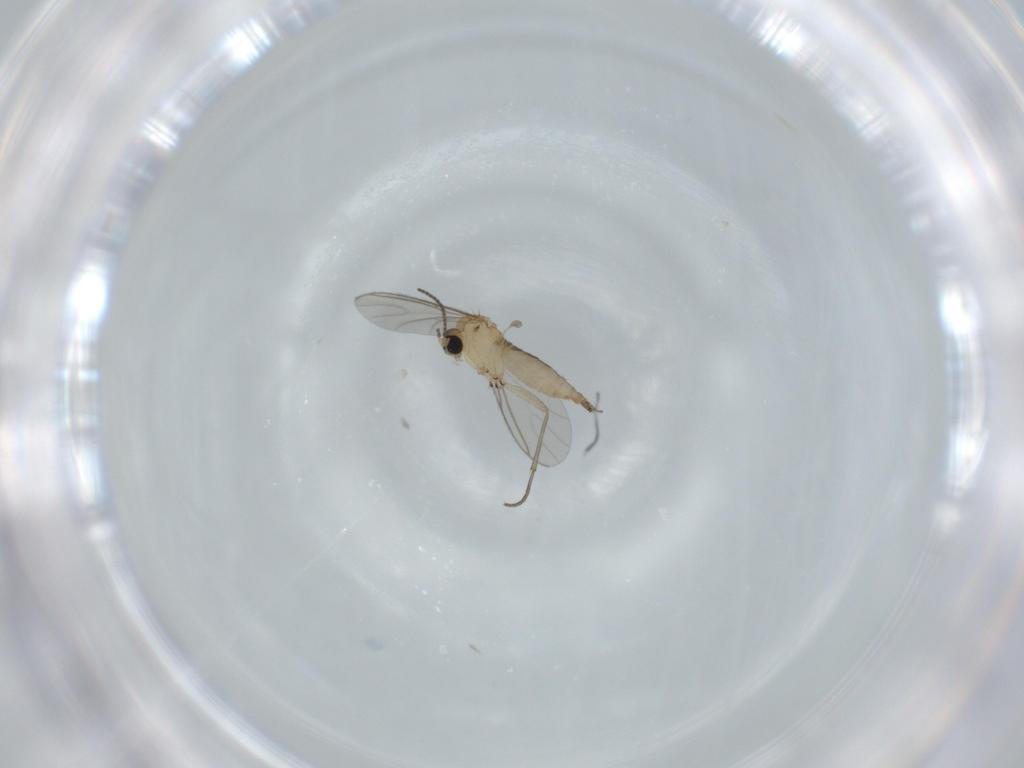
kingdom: Animalia
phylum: Arthropoda
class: Insecta
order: Diptera
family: Sciaridae
